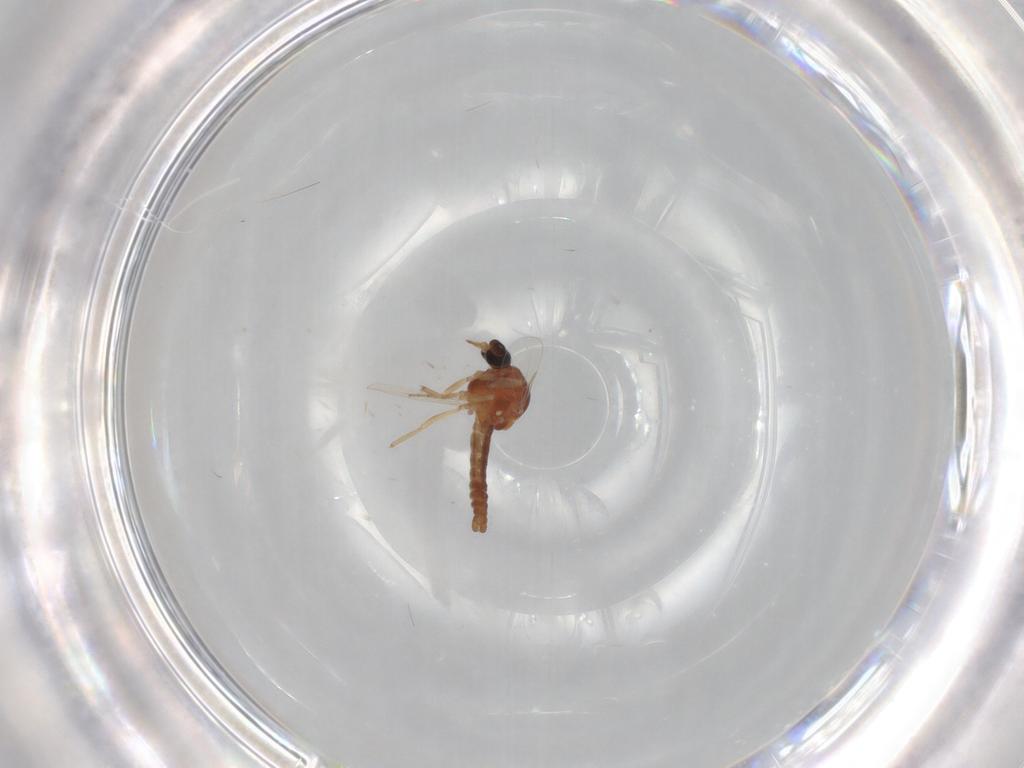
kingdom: Animalia
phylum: Arthropoda
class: Insecta
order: Diptera
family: Ceratopogonidae
